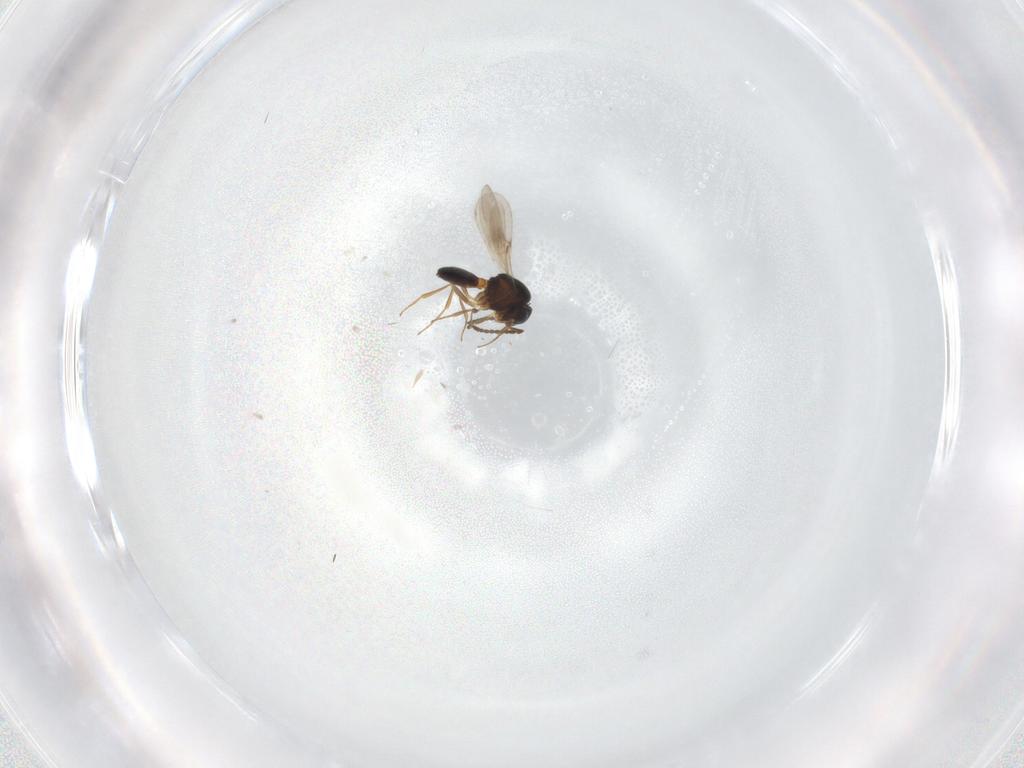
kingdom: Animalia
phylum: Arthropoda
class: Insecta
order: Hymenoptera
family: Scelionidae
